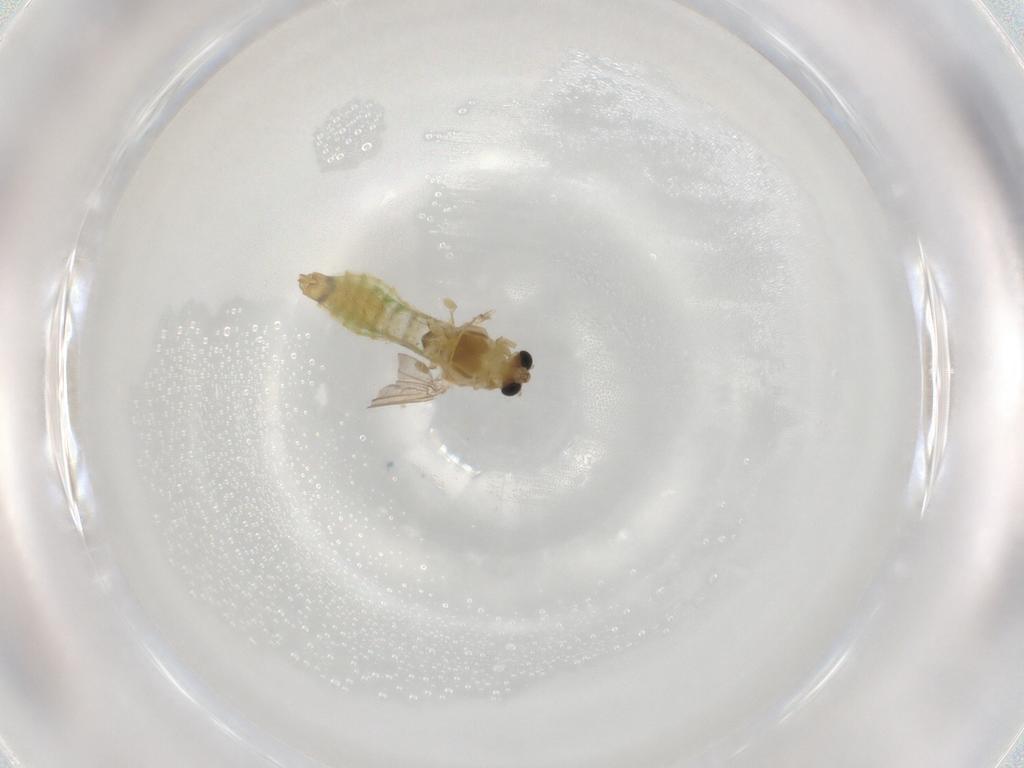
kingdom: Animalia
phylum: Arthropoda
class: Insecta
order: Diptera
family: Chironomidae
